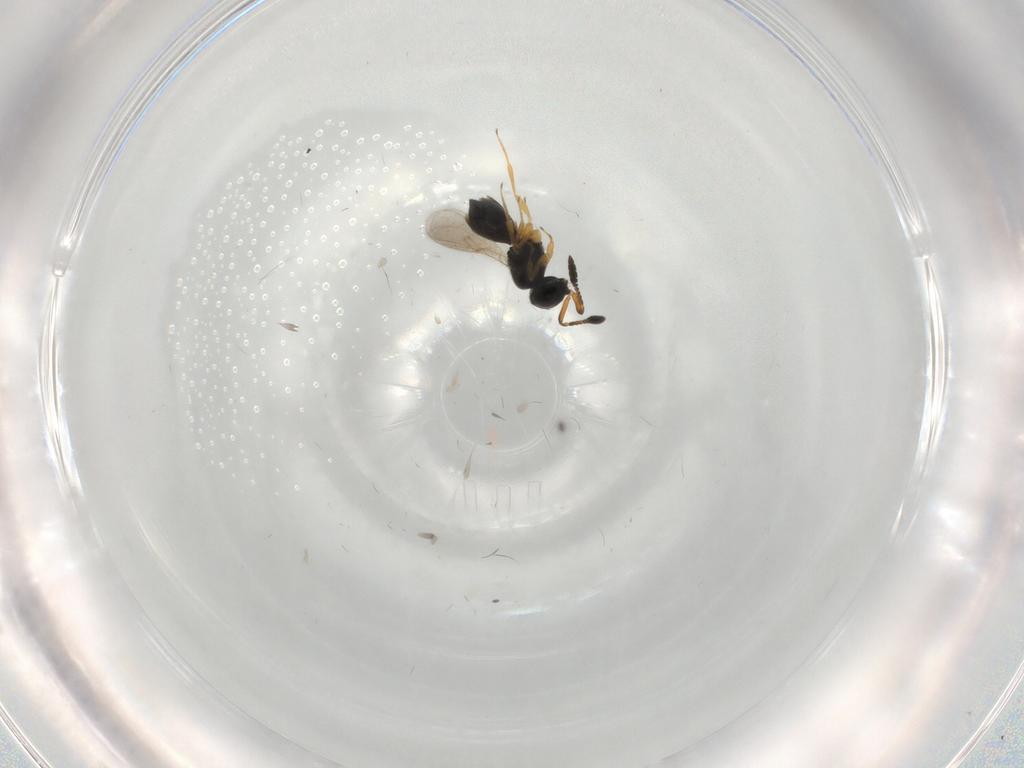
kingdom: Animalia
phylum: Arthropoda
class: Insecta
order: Hymenoptera
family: Scelionidae
